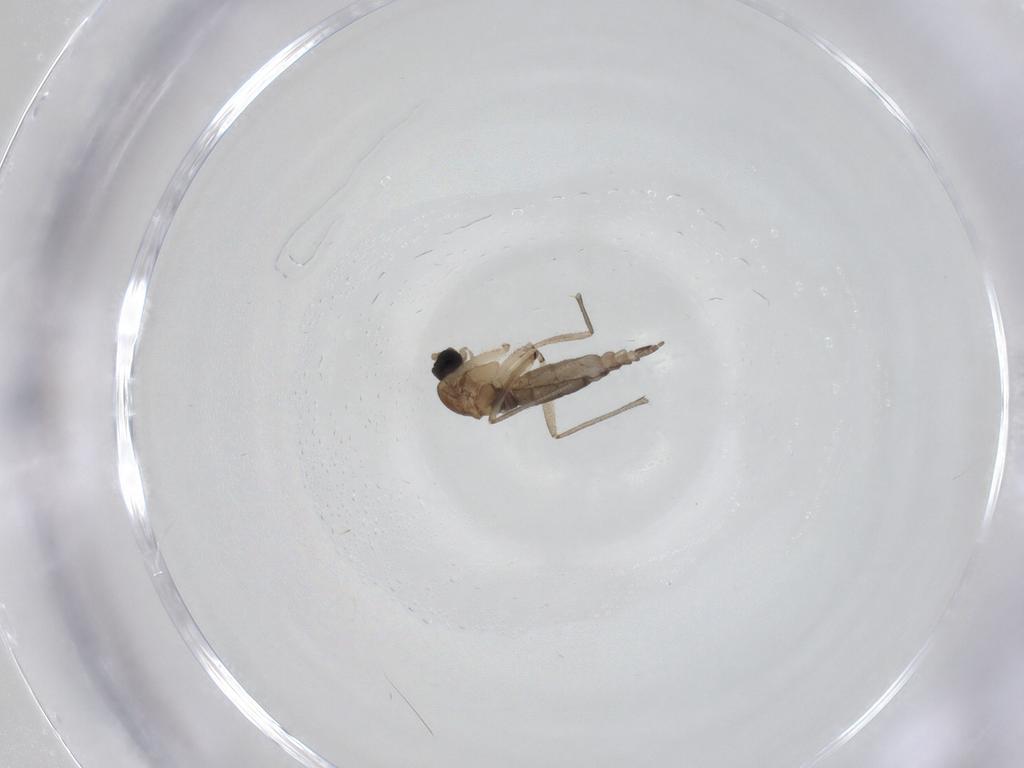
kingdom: Animalia
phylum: Arthropoda
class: Insecta
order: Diptera
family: Sciaridae
